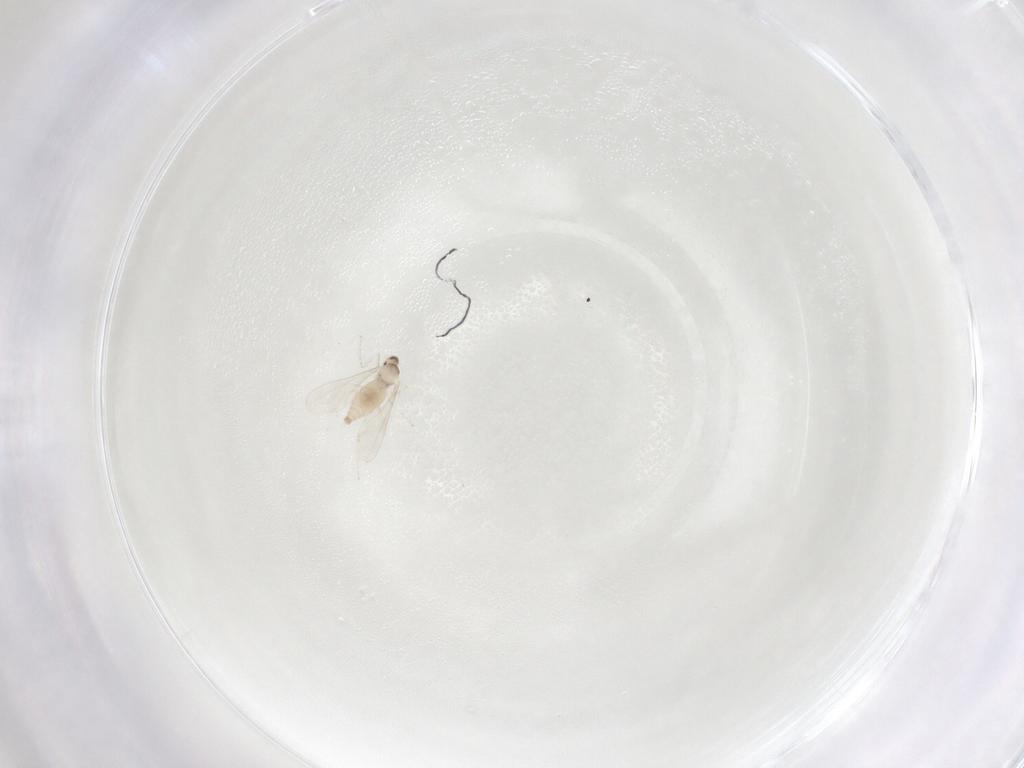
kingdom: Animalia
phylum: Arthropoda
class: Insecta
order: Diptera
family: Cecidomyiidae
